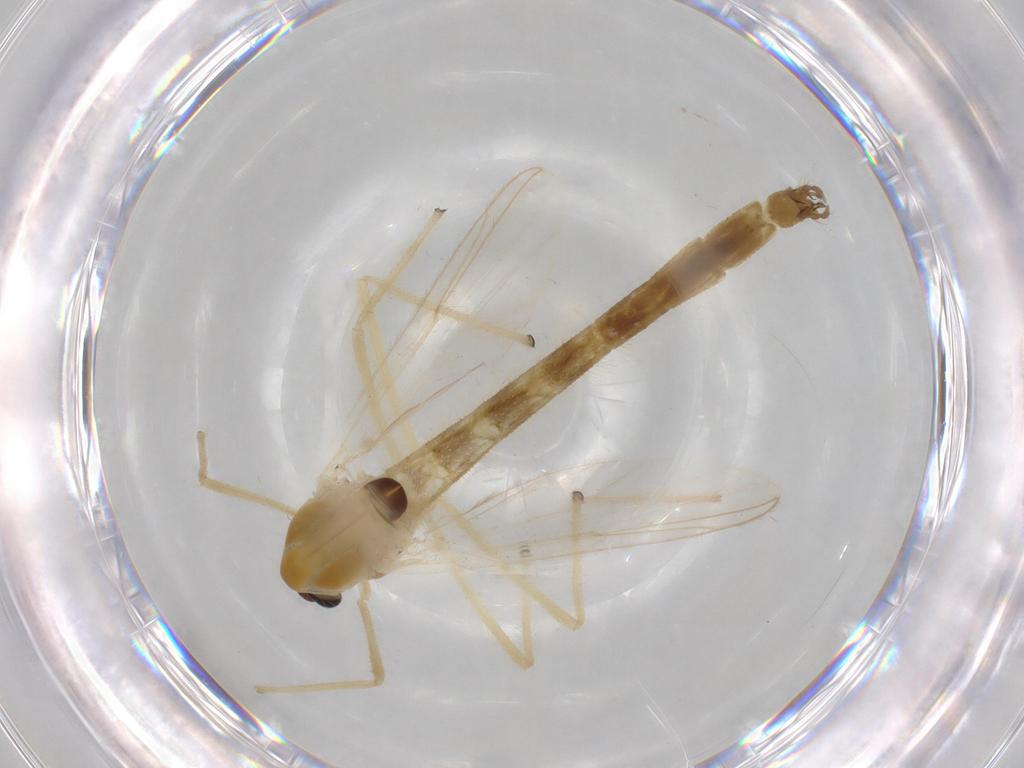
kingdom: Animalia
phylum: Arthropoda
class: Insecta
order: Diptera
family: Chironomidae
